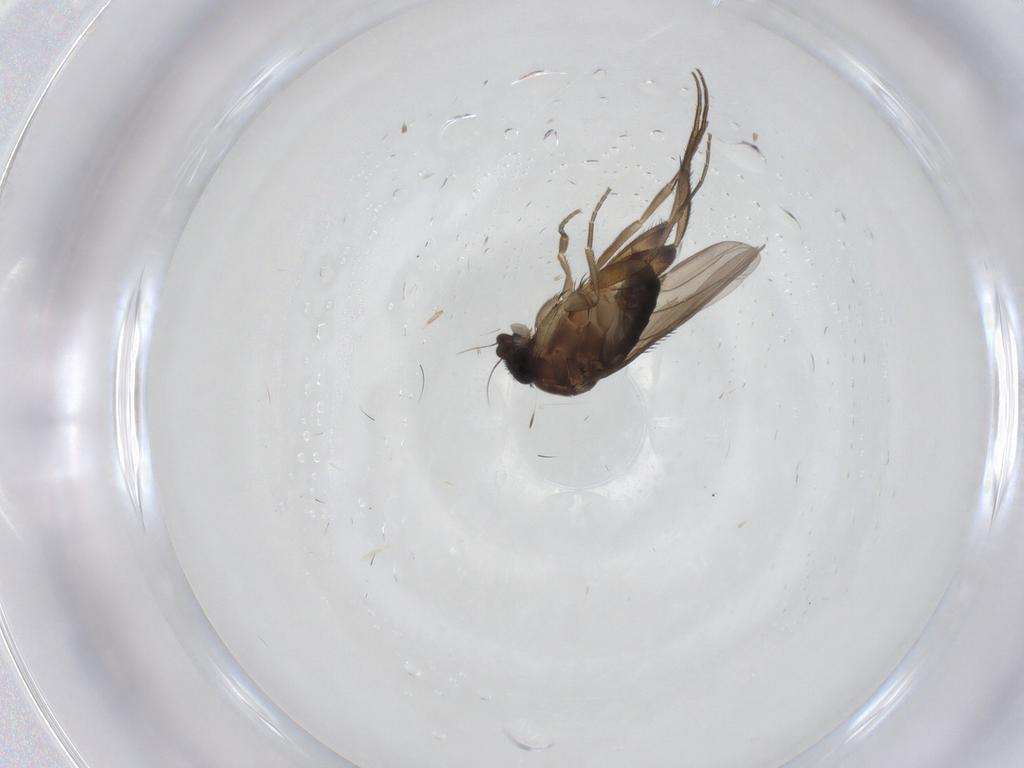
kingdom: Animalia
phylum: Arthropoda
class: Insecta
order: Diptera
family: Phoridae
